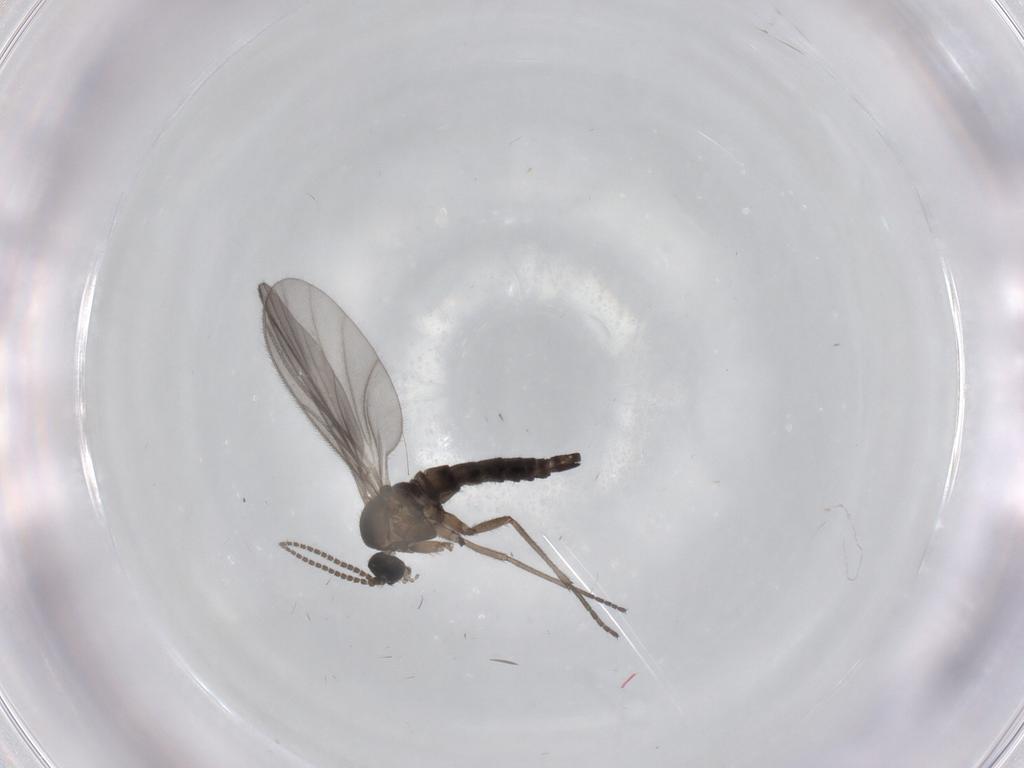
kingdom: Animalia
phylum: Arthropoda
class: Insecta
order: Diptera
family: Sciaridae
